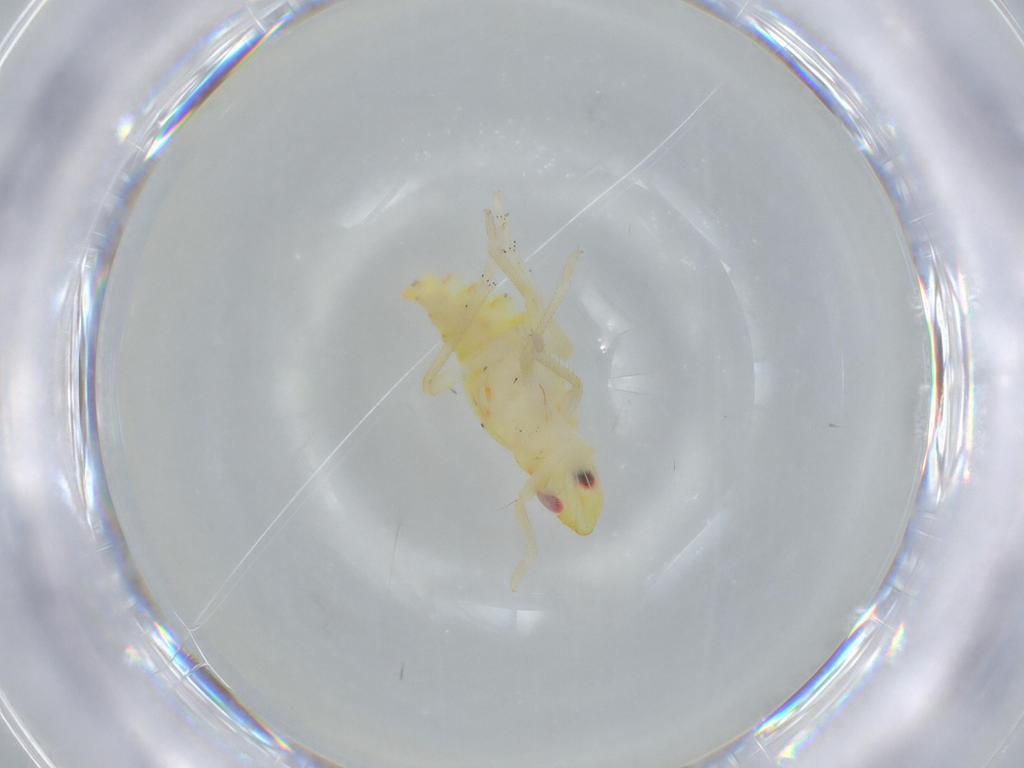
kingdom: Animalia
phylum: Arthropoda
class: Insecta
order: Hemiptera
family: Tropiduchidae
